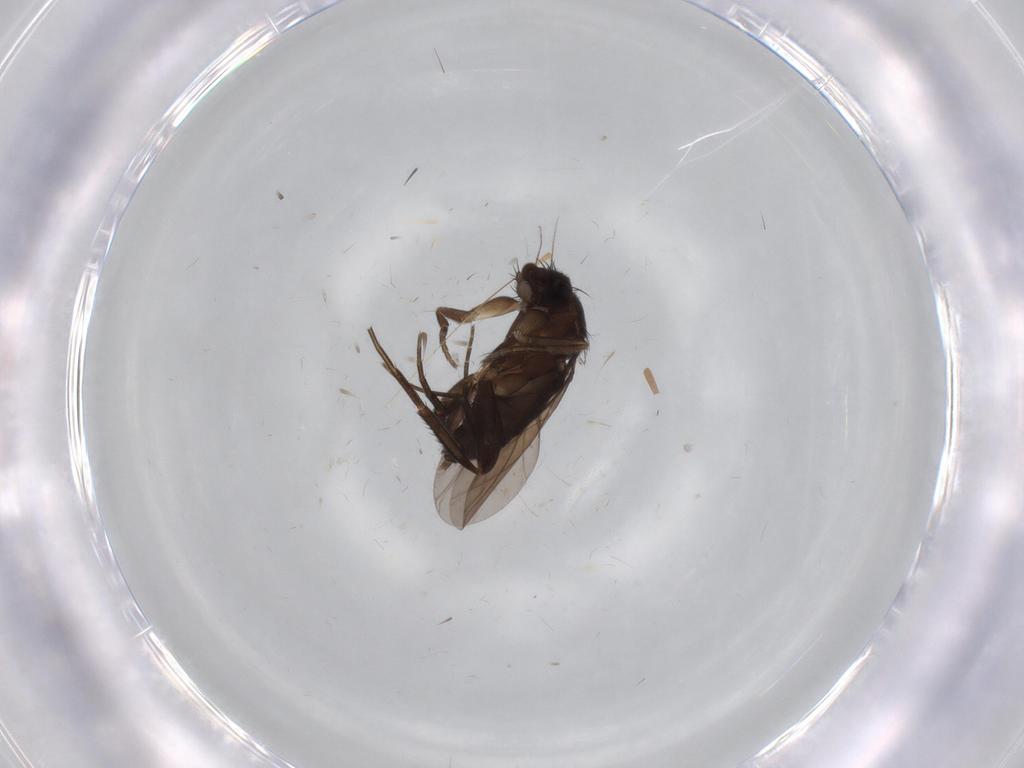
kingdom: Animalia
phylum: Arthropoda
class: Insecta
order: Diptera
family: Phoridae
